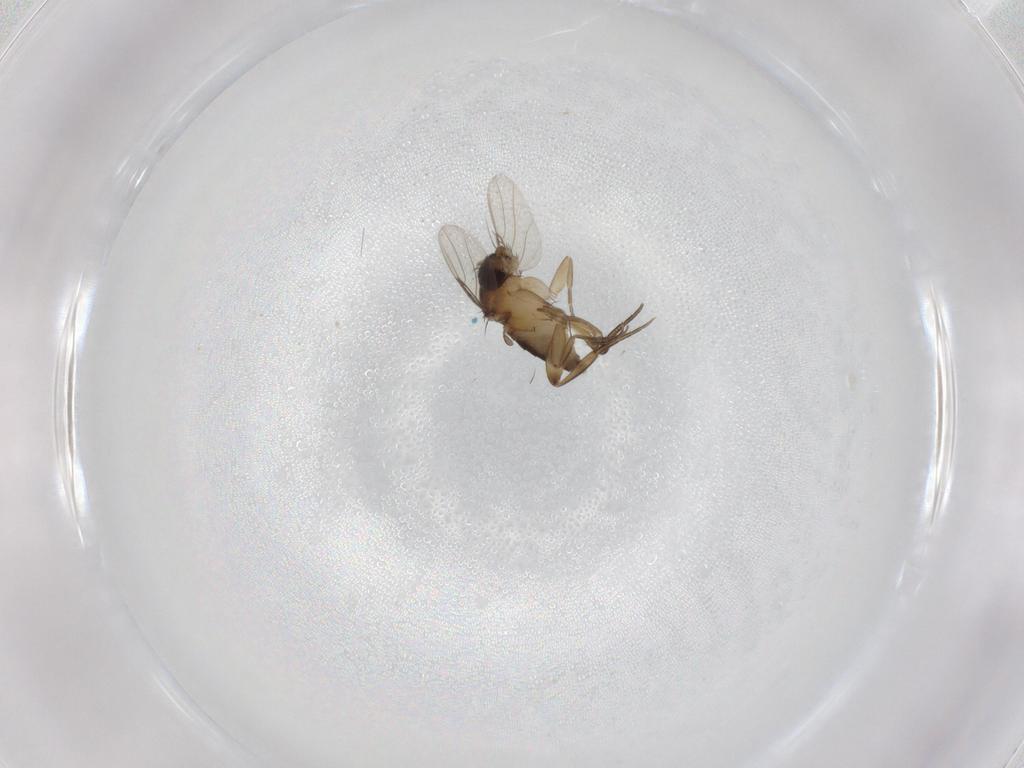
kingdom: Animalia
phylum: Arthropoda
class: Insecta
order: Diptera
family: Phoridae
